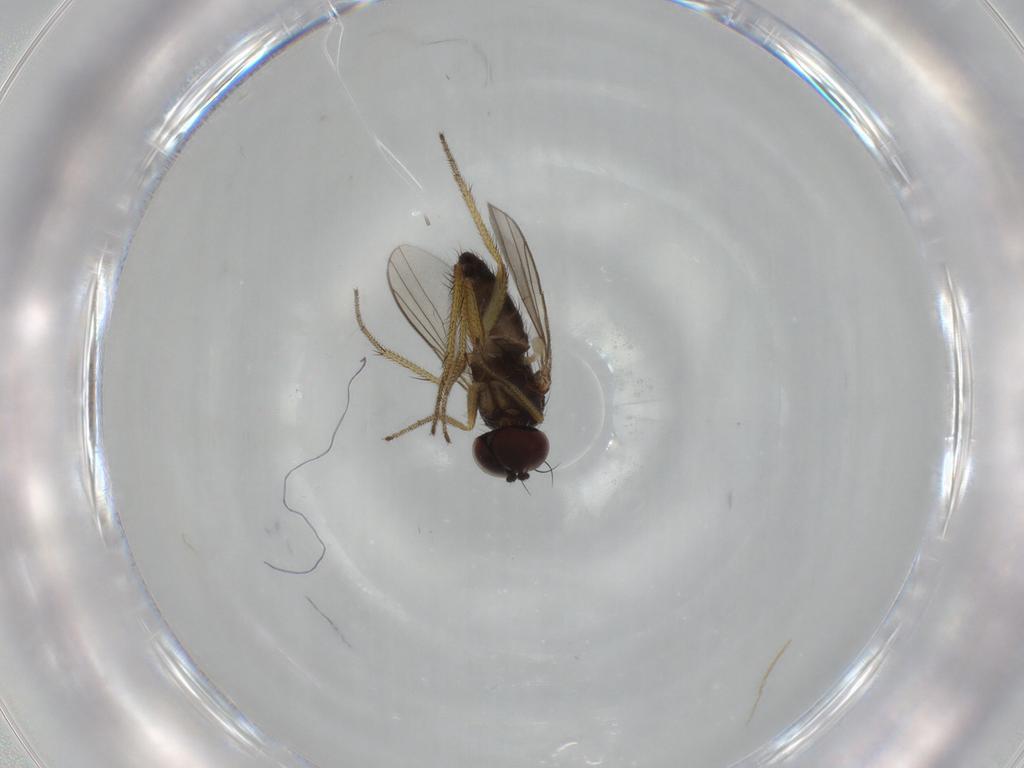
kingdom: Animalia
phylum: Arthropoda
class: Insecta
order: Diptera
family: Dolichopodidae
